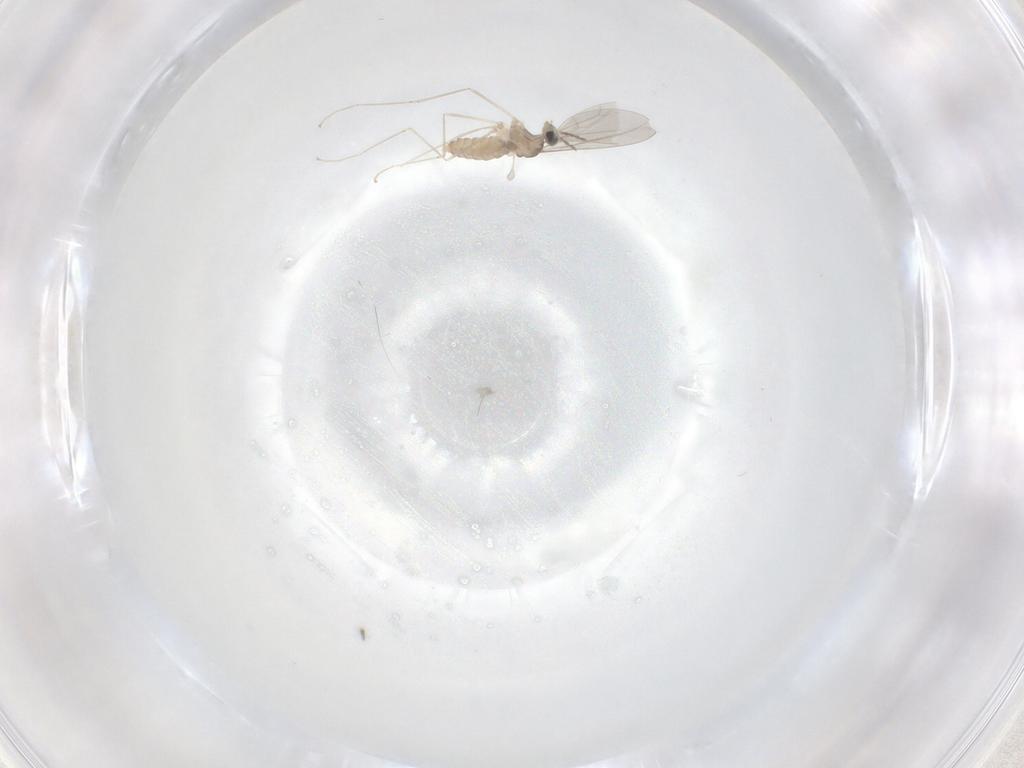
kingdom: Animalia
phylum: Arthropoda
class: Insecta
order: Diptera
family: Cecidomyiidae
